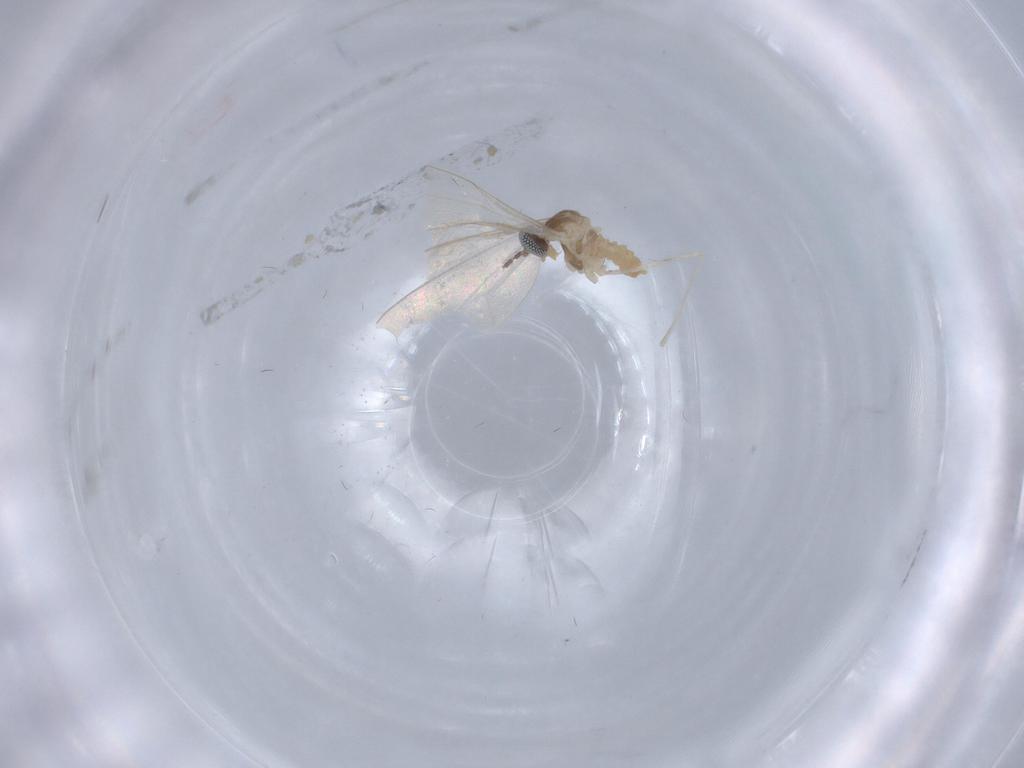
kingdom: Animalia
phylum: Arthropoda
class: Insecta
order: Diptera
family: Cecidomyiidae
